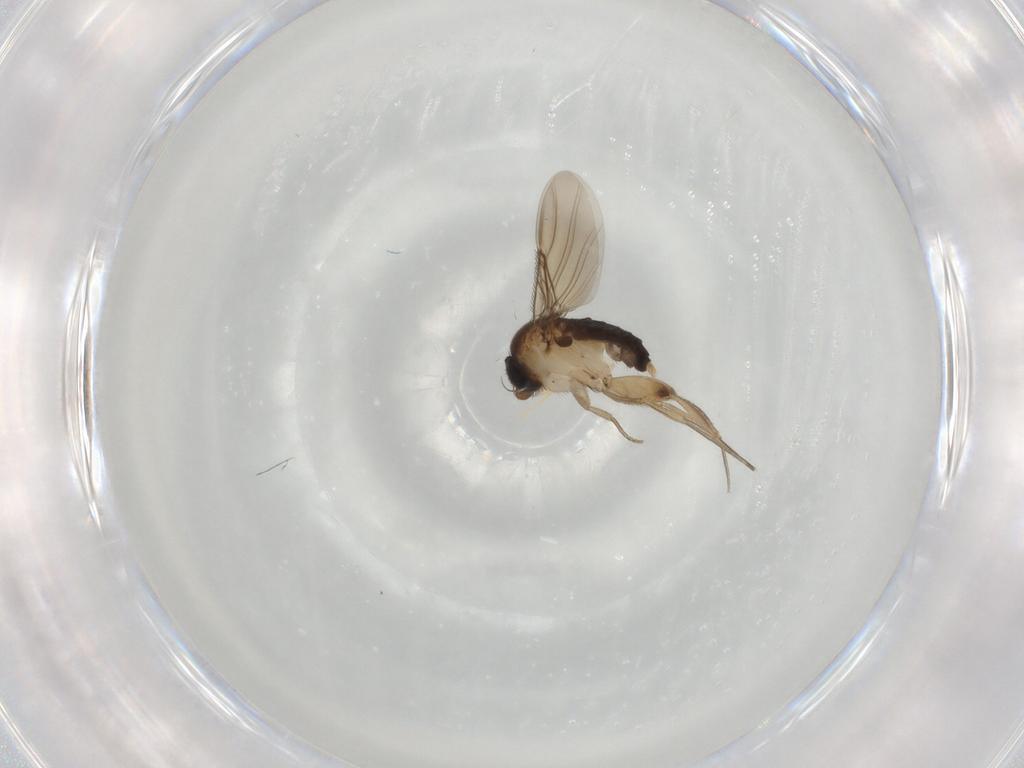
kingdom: Animalia
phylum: Arthropoda
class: Insecta
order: Diptera
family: Phoridae
